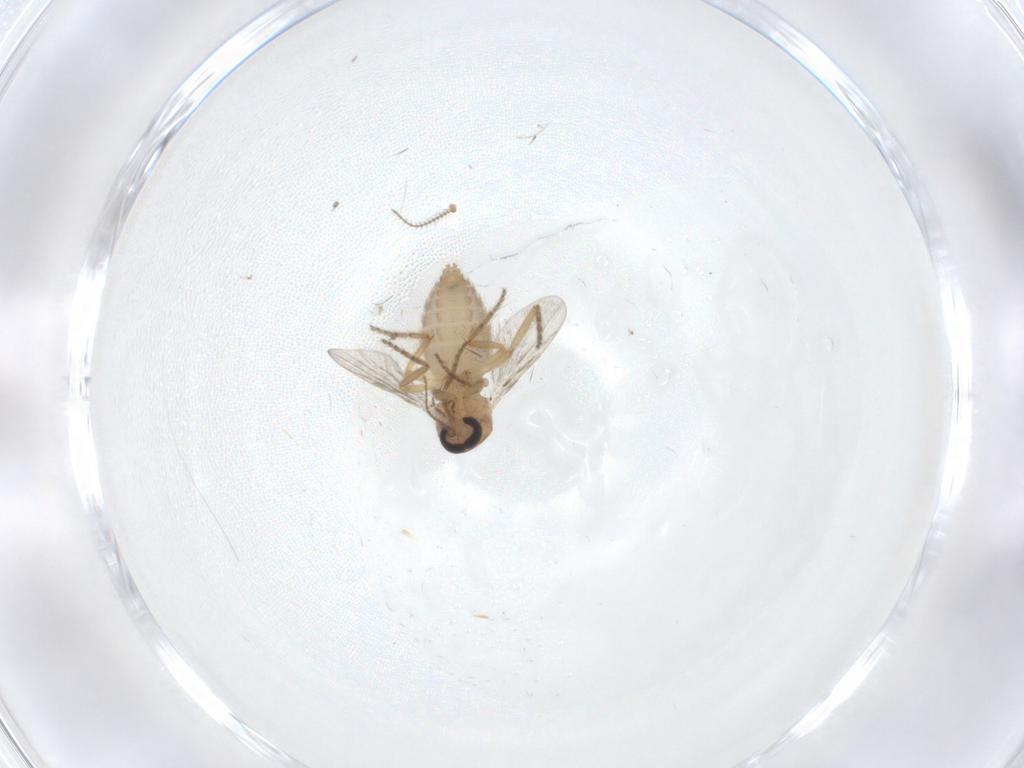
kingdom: Animalia
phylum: Arthropoda
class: Insecta
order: Diptera
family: Ceratopogonidae
